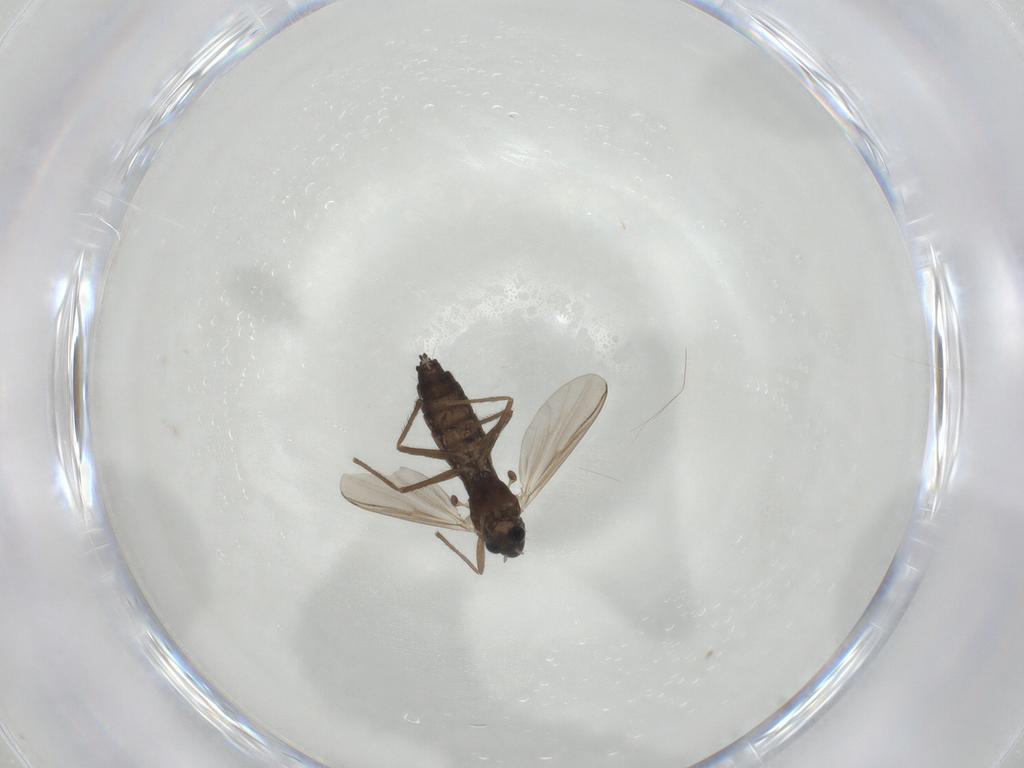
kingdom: Animalia
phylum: Arthropoda
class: Insecta
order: Diptera
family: Chironomidae
